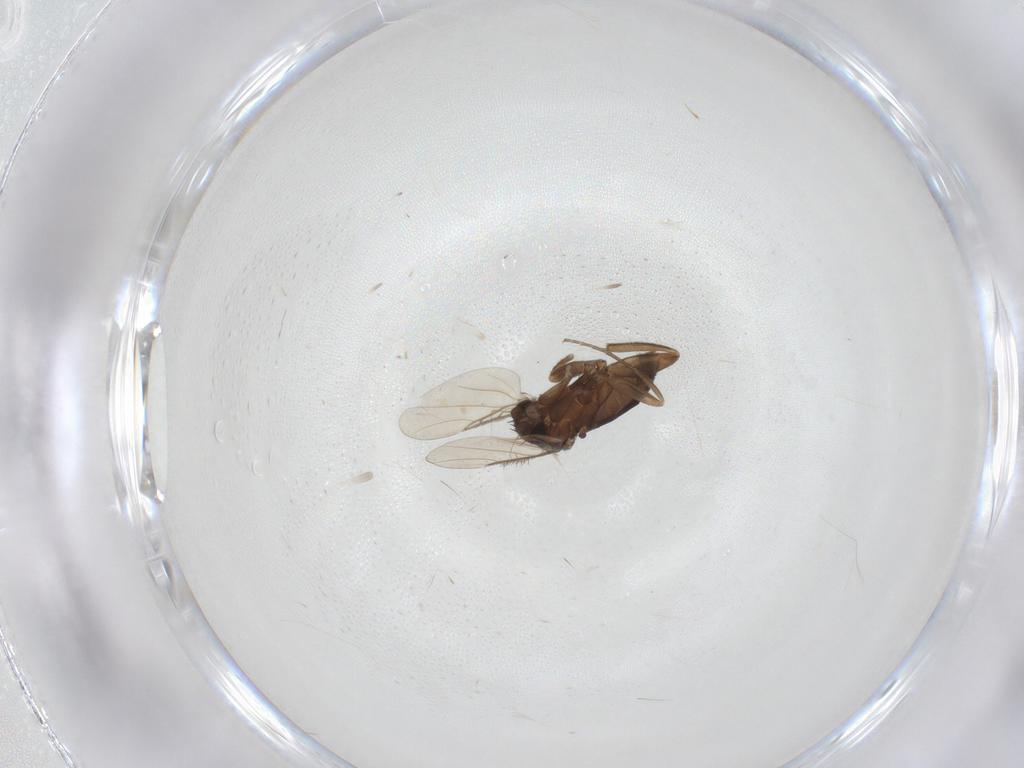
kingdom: Animalia
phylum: Arthropoda
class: Insecta
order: Diptera
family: Phoridae
